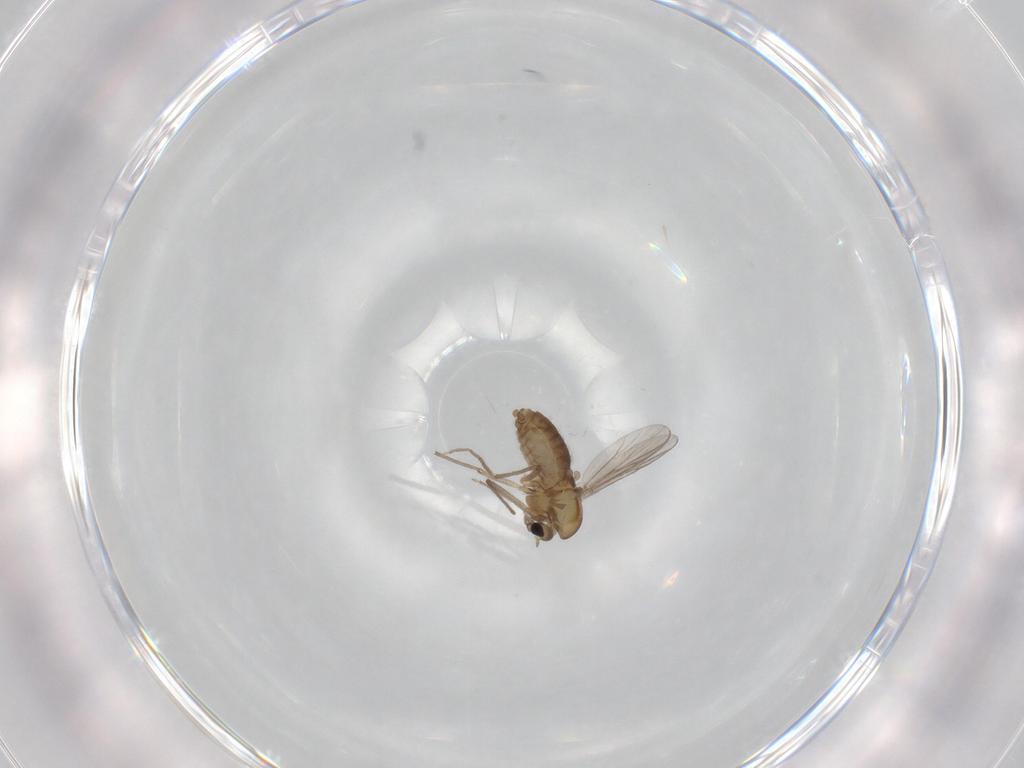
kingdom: Animalia
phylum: Arthropoda
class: Insecta
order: Diptera
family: Chironomidae
